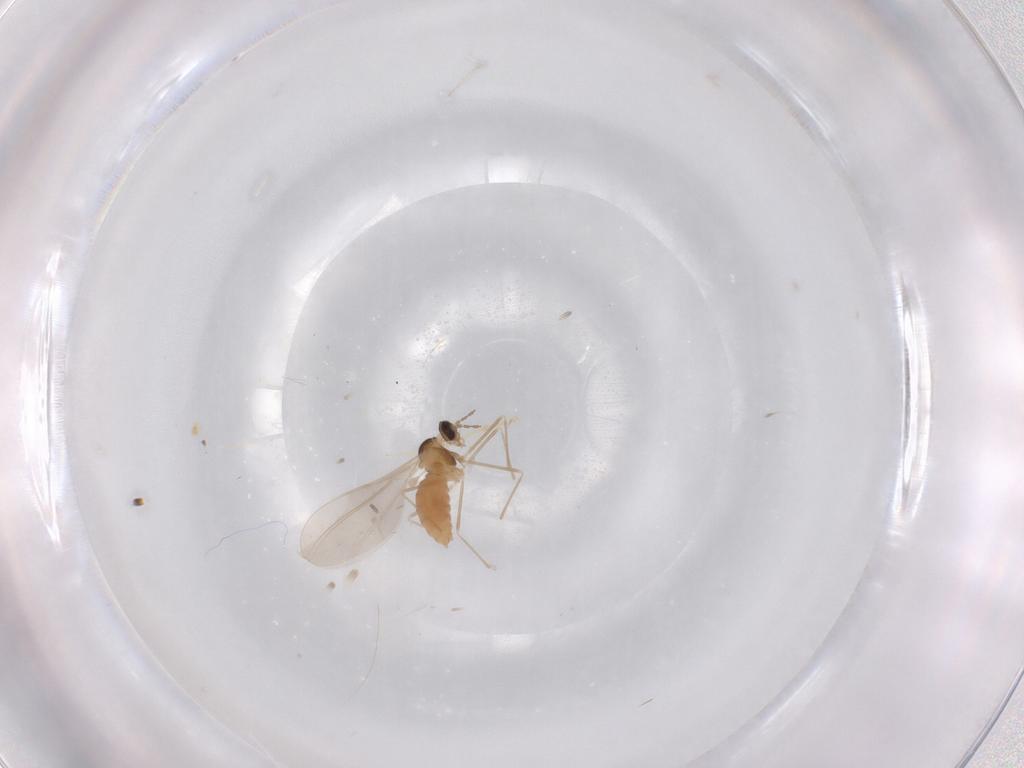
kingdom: Animalia
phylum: Arthropoda
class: Insecta
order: Diptera
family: Cecidomyiidae
